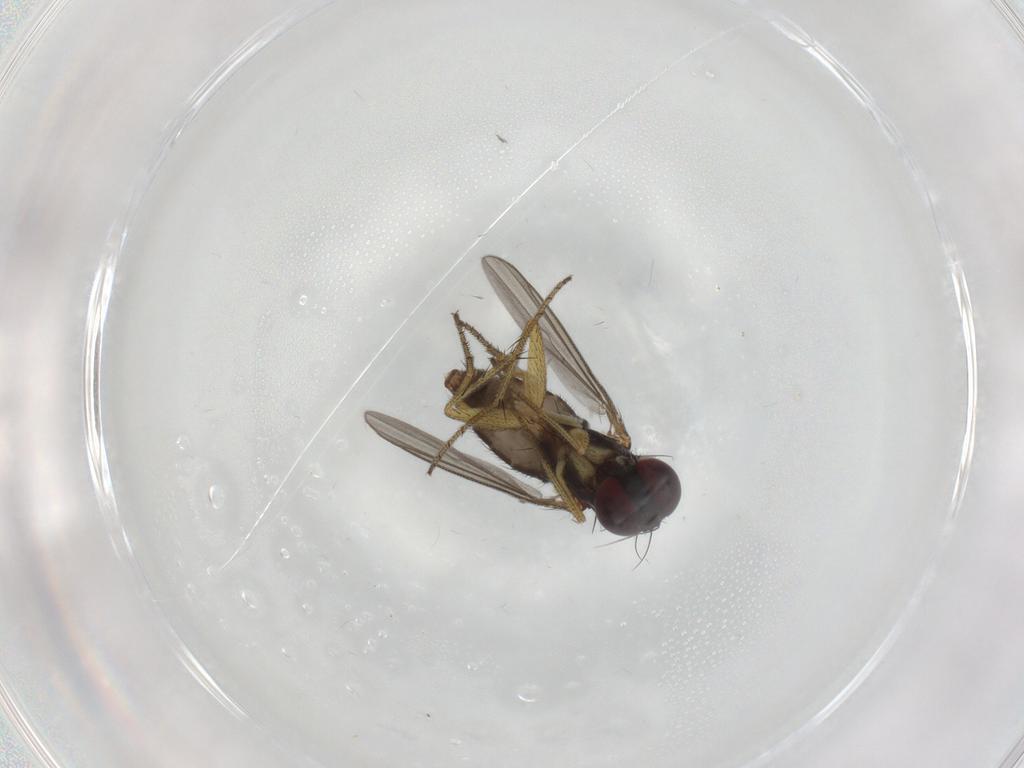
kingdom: Animalia
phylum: Arthropoda
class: Insecta
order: Diptera
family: Dolichopodidae
